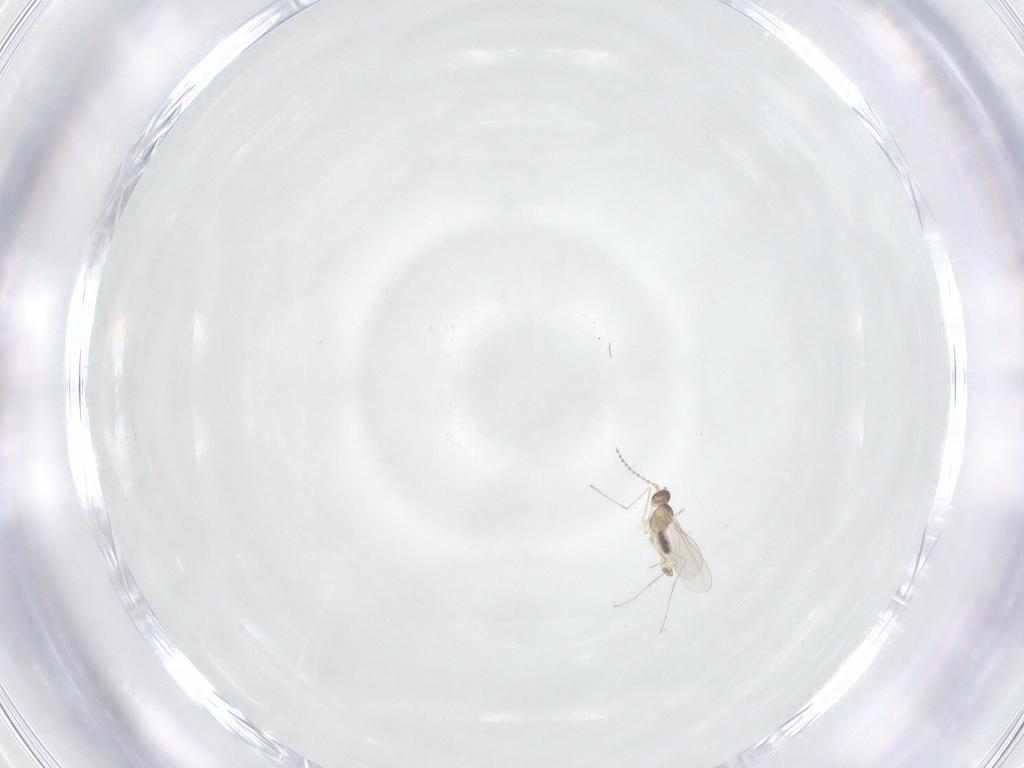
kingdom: Animalia
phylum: Arthropoda
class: Insecta
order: Diptera
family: Cecidomyiidae
